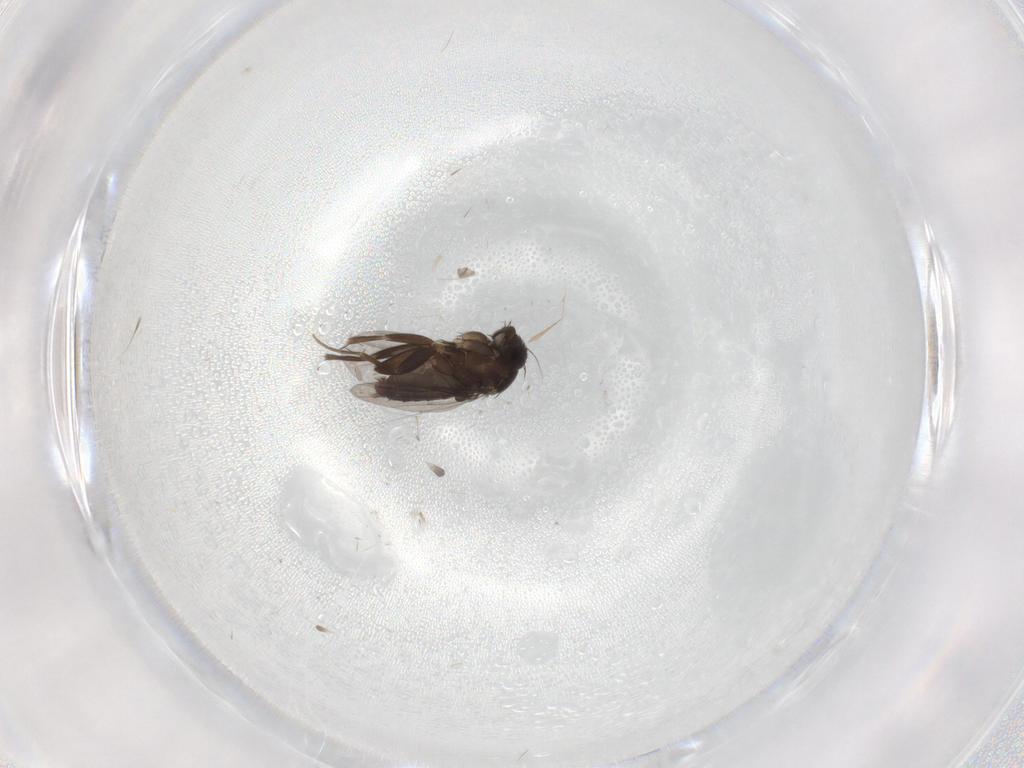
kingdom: Animalia
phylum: Arthropoda
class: Insecta
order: Diptera
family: Phoridae
